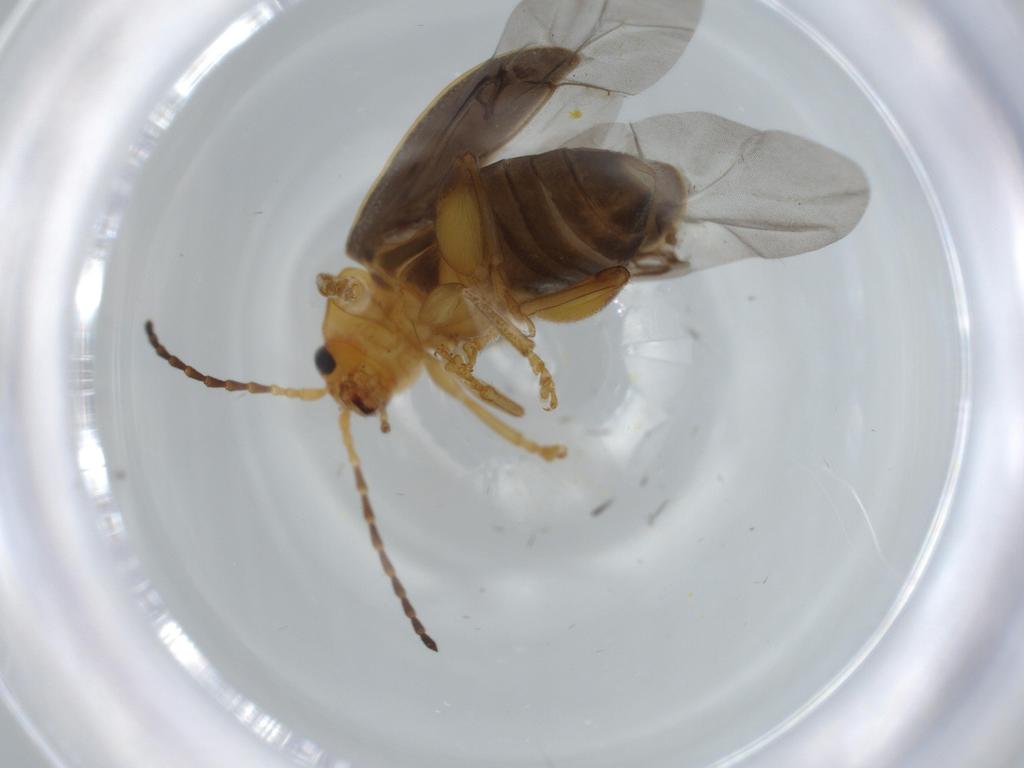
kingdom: Animalia
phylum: Arthropoda
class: Insecta
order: Coleoptera
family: Chrysomelidae
